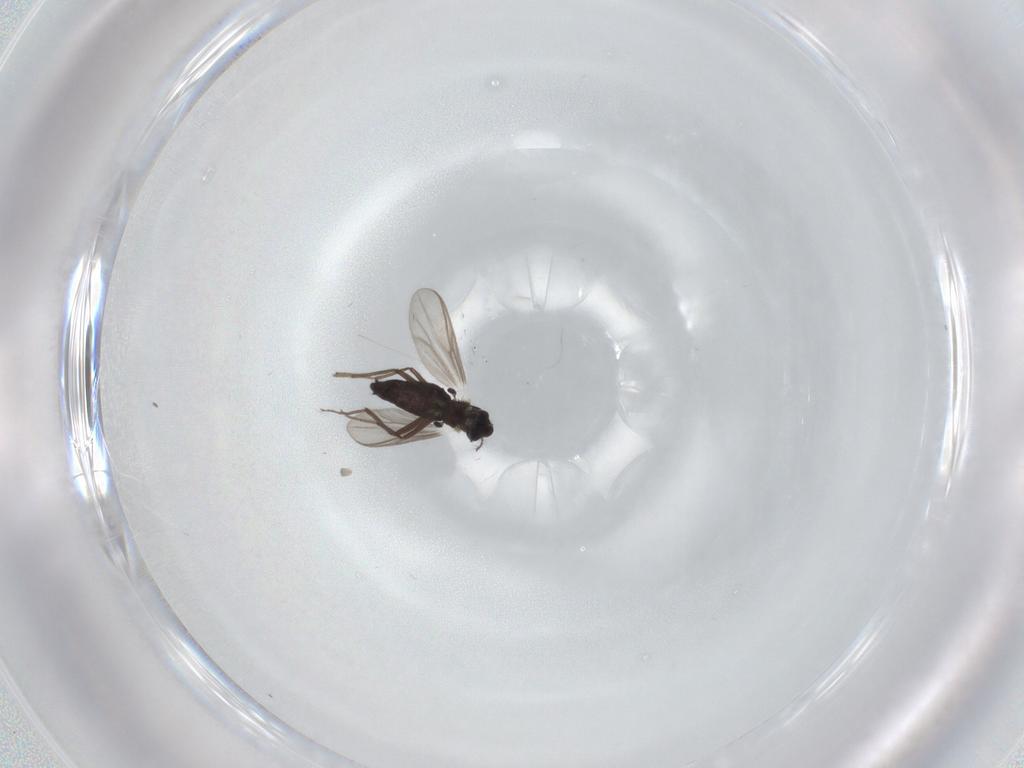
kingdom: Animalia
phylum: Arthropoda
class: Insecta
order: Diptera
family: Chironomidae
